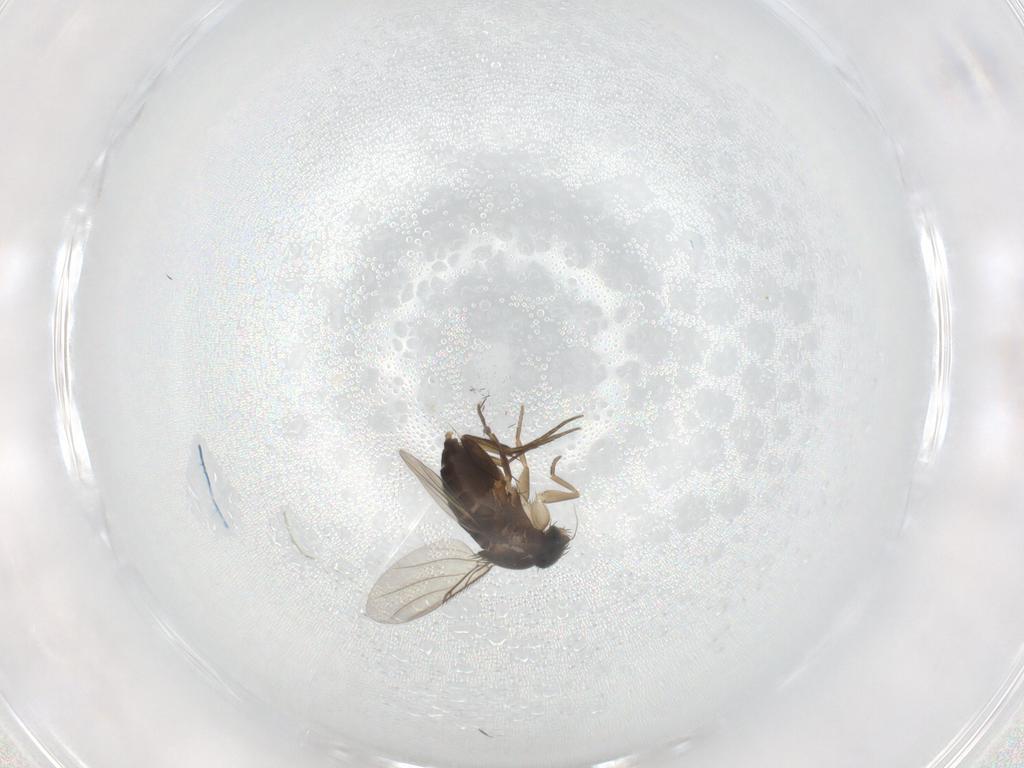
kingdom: Animalia
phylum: Arthropoda
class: Insecta
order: Diptera
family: Phoridae
